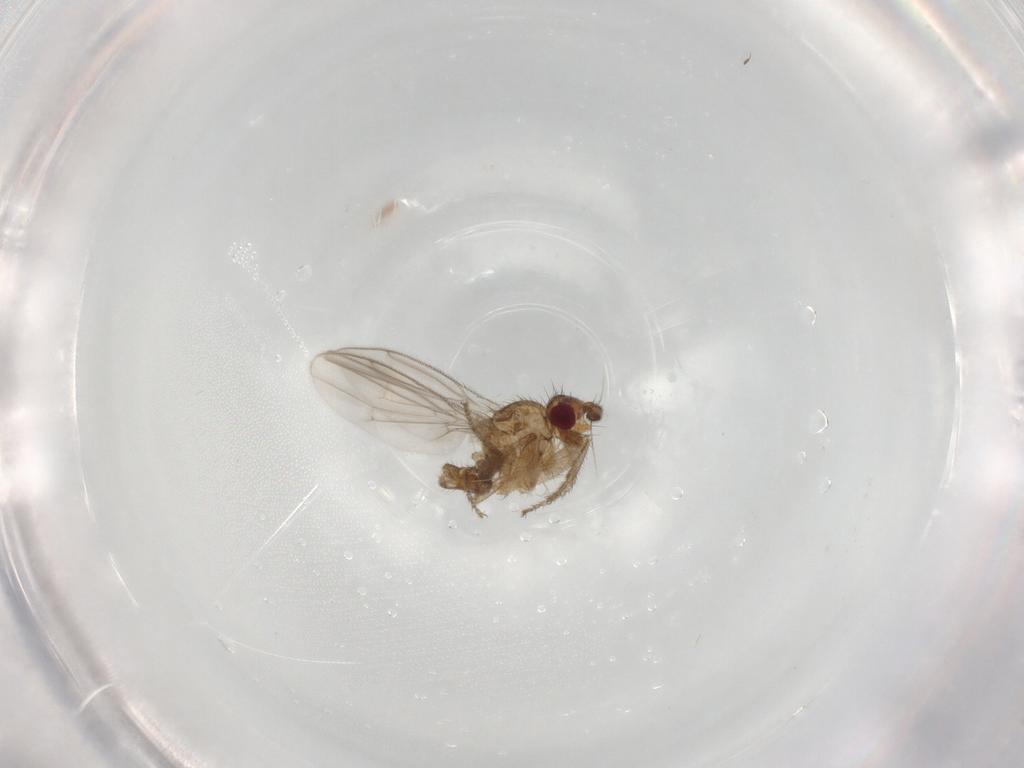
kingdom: Animalia
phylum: Arthropoda
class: Insecta
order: Diptera
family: Sphaeroceridae
